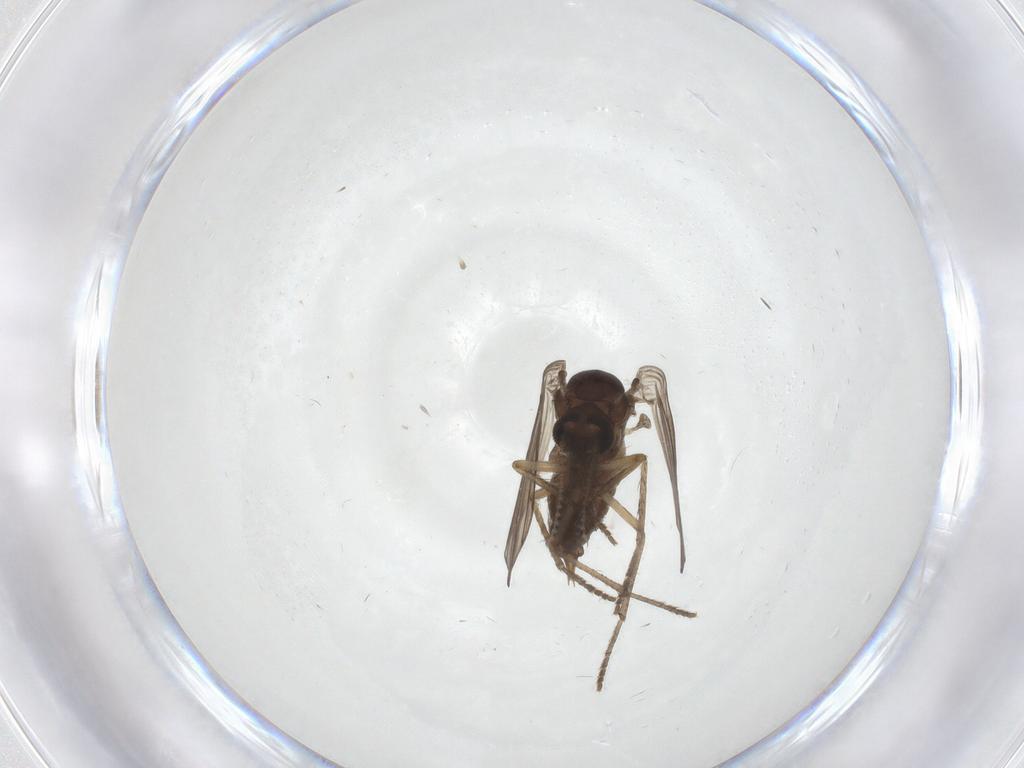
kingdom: Animalia
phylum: Arthropoda
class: Insecta
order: Diptera
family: Psychodidae
